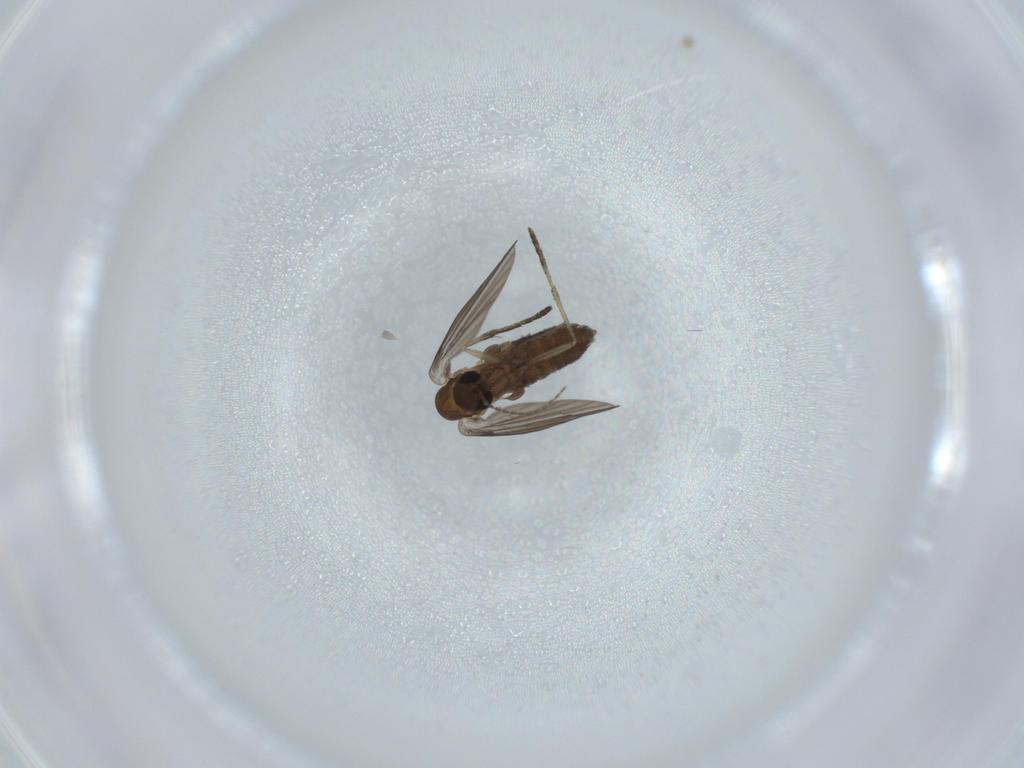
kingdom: Animalia
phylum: Arthropoda
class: Insecta
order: Diptera
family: Psychodidae
